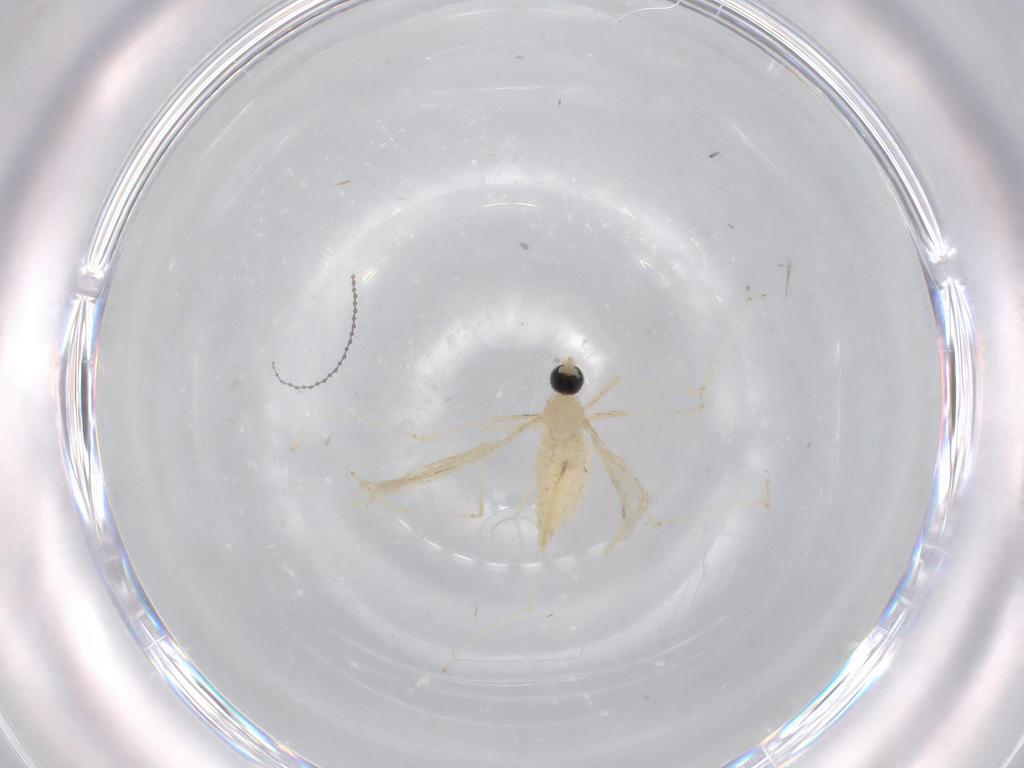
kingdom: Animalia
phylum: Arthropoda
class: Insecta
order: Diptera
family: Cecidomyiidae
